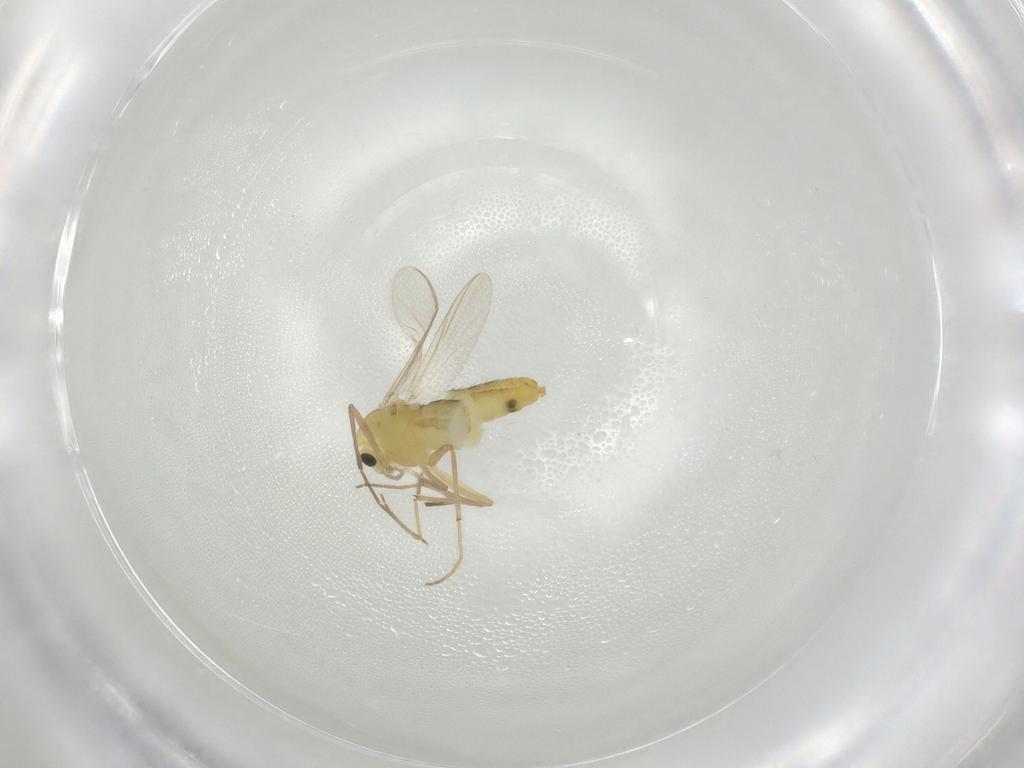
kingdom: Animalia
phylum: Arthropoda
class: Insecta
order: Diptera
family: Chironomidae
